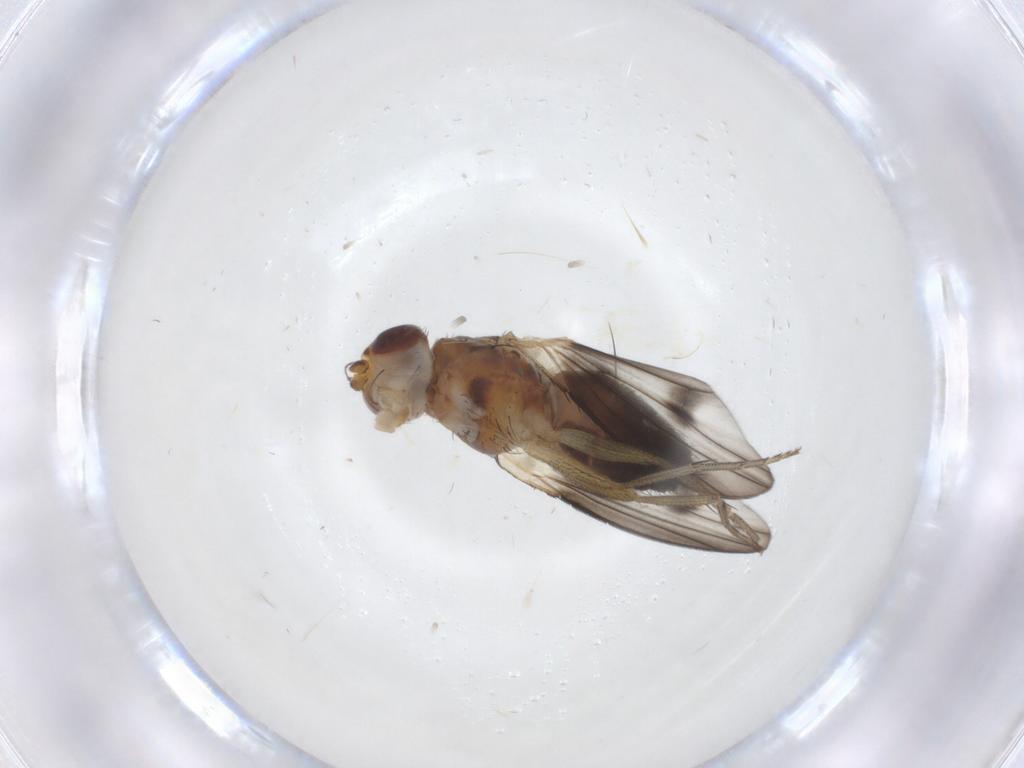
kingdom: Animalia
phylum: Arthropoda
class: Insecta
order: Diptera
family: Heleomyzidae
